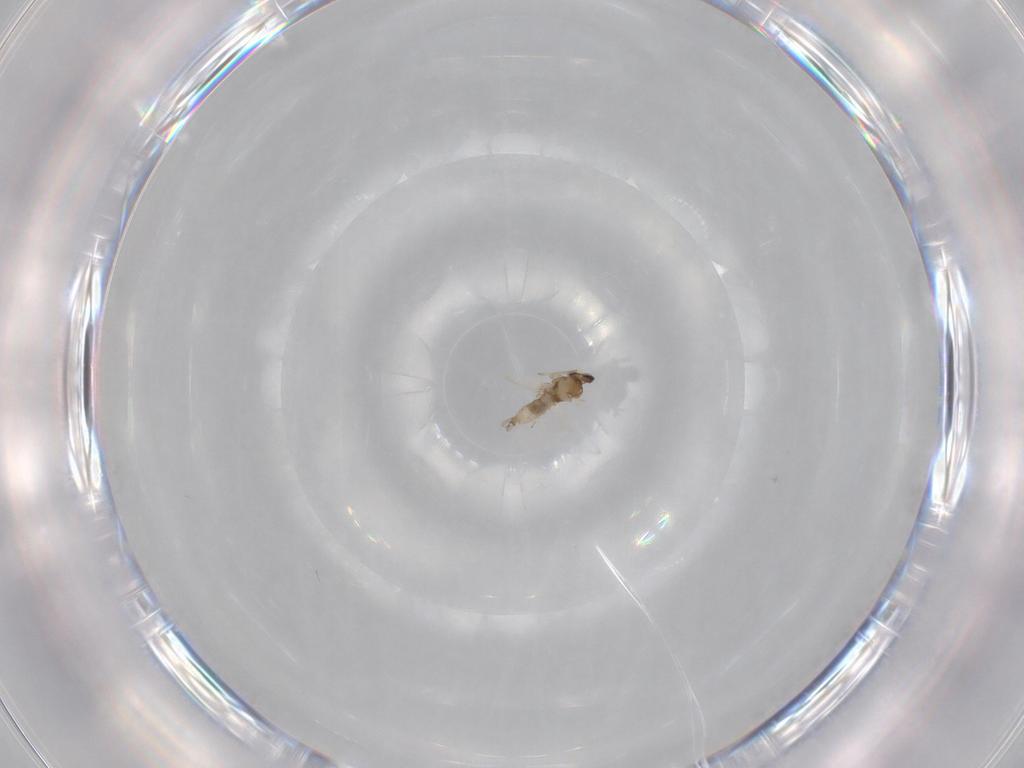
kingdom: Animalia
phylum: Arthropoda
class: Insecta
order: Diptera
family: Cecidomyiidae
